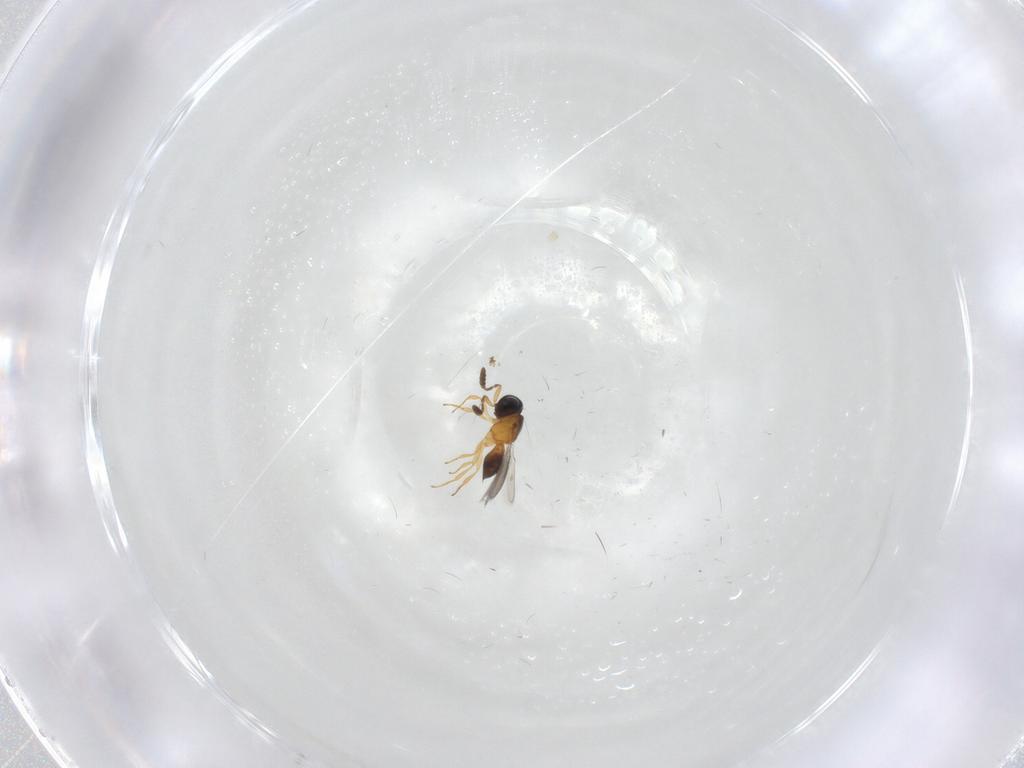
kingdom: Animalia
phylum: Arthropoda
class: Insecta
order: Hymenoptera
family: Scelionidae
